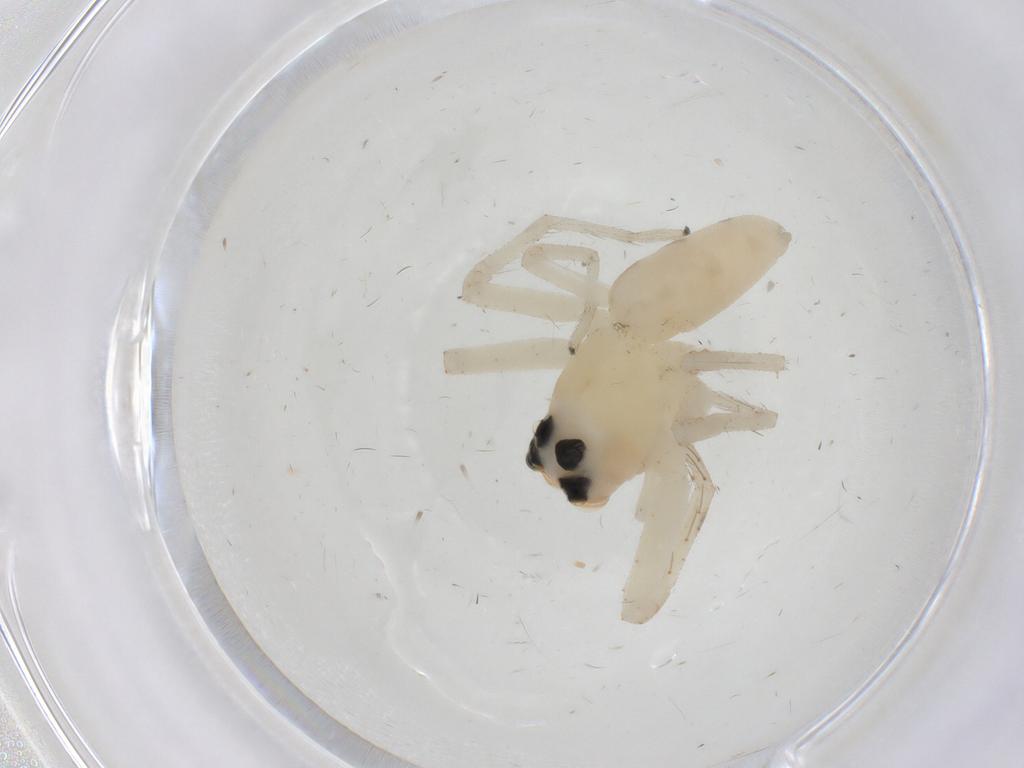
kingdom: Animalia
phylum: Arthropoda
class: Arachnida
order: Araneae
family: Salticidae
